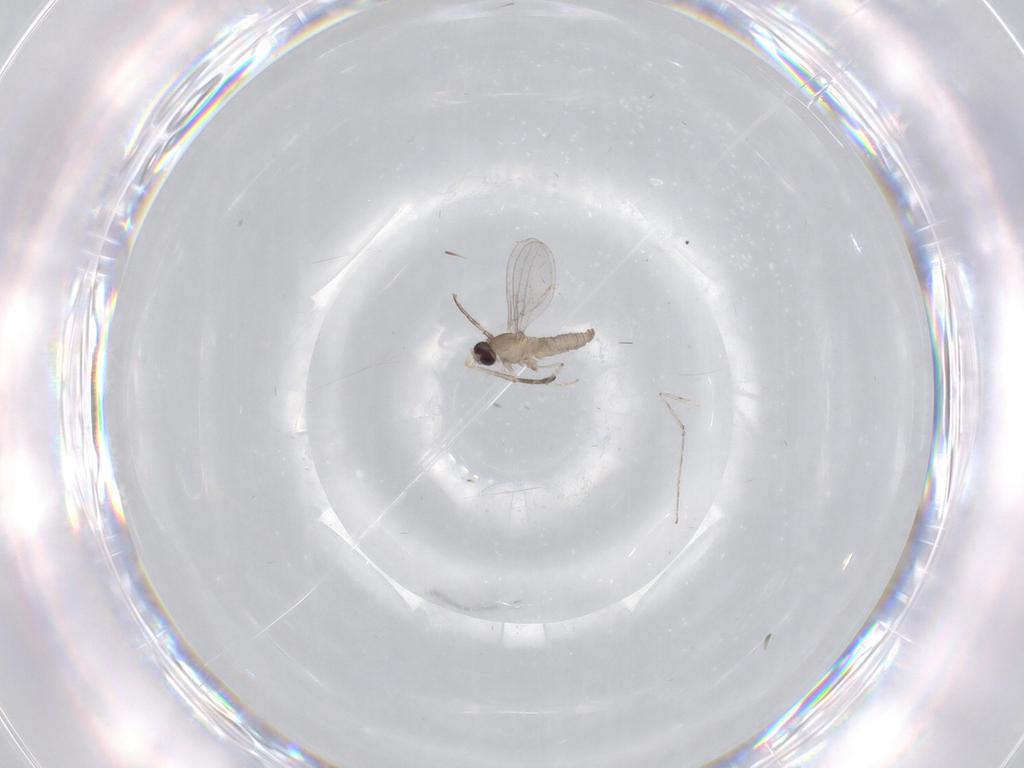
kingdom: Animalia
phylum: Arthropoda
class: Insecta
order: Diptera
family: Cecidomyiidae
